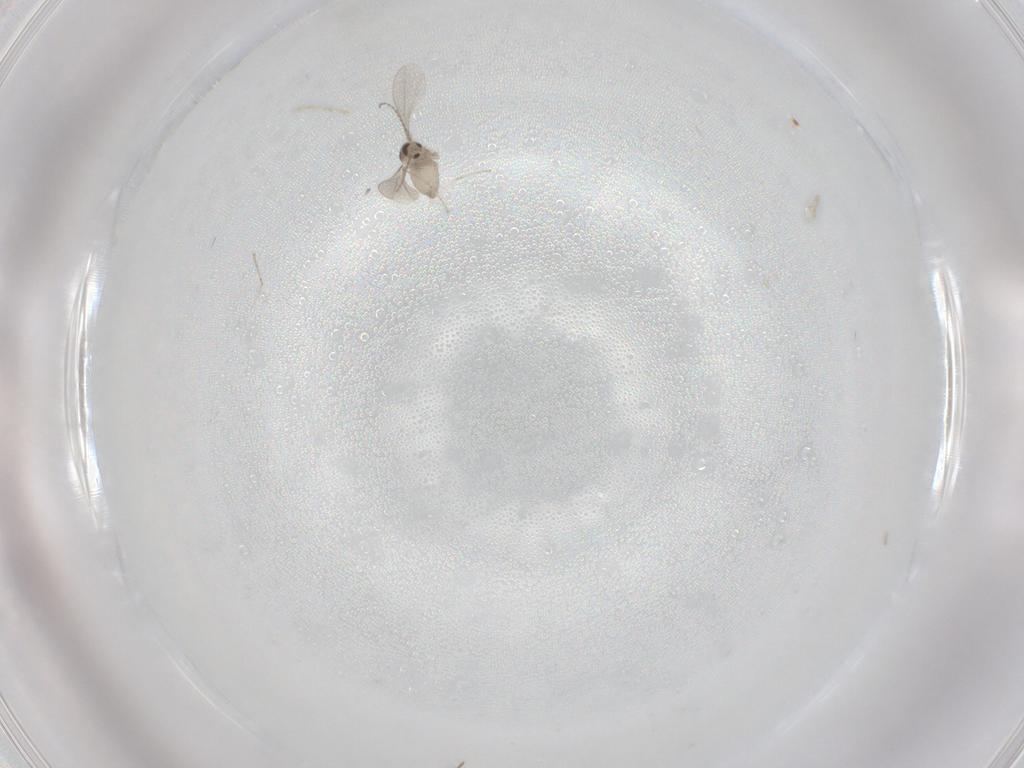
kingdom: Animalia
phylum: Arthropoda
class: Insecta
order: Diptera
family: Cecidomyiidae
